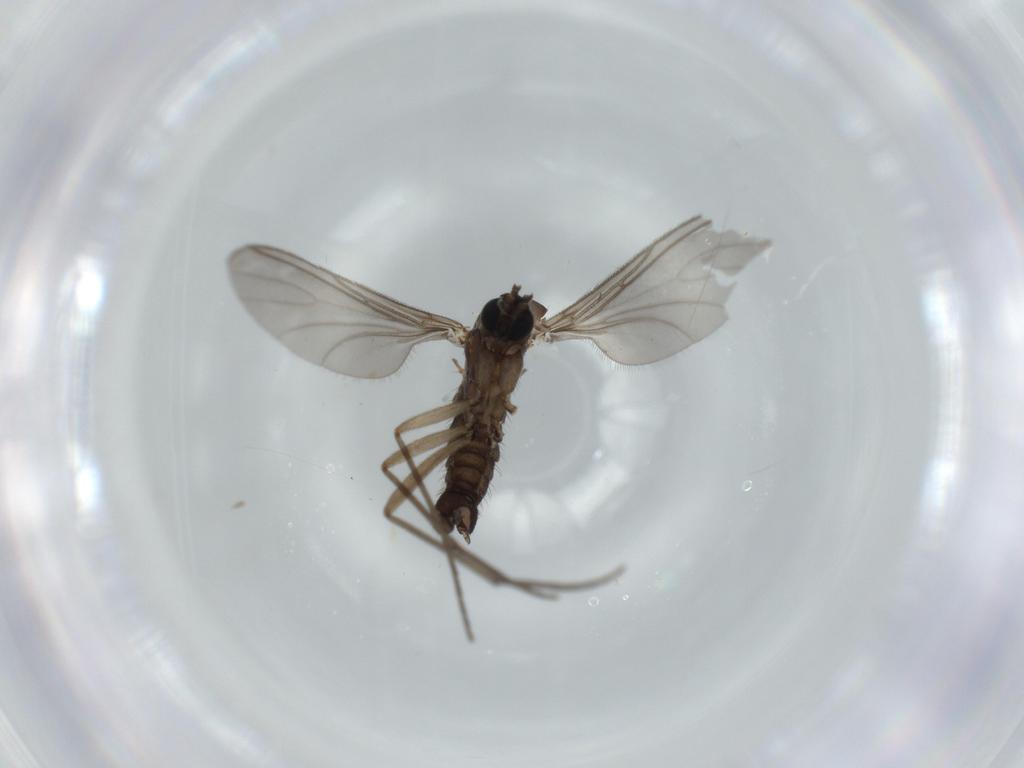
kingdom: Animalia
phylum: Arthropoda
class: Insecta
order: Diptera
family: Sciaridae
